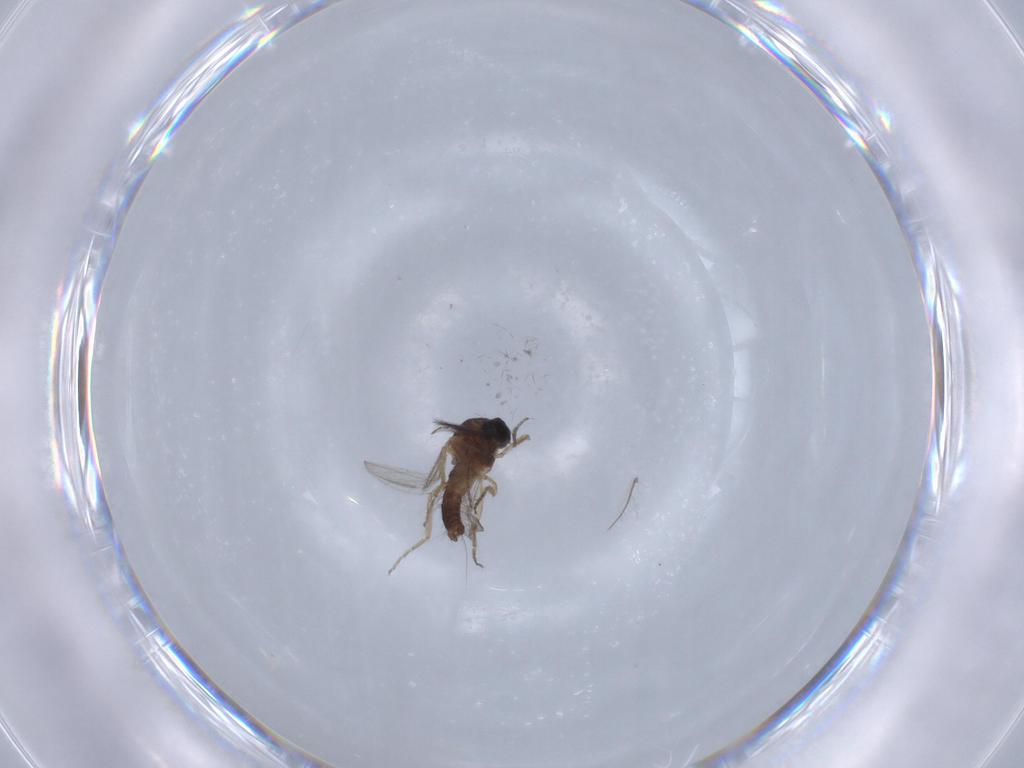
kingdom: Animalia
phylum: Arthropoda
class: Insecta
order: Diptera
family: Ceratopogonidae
